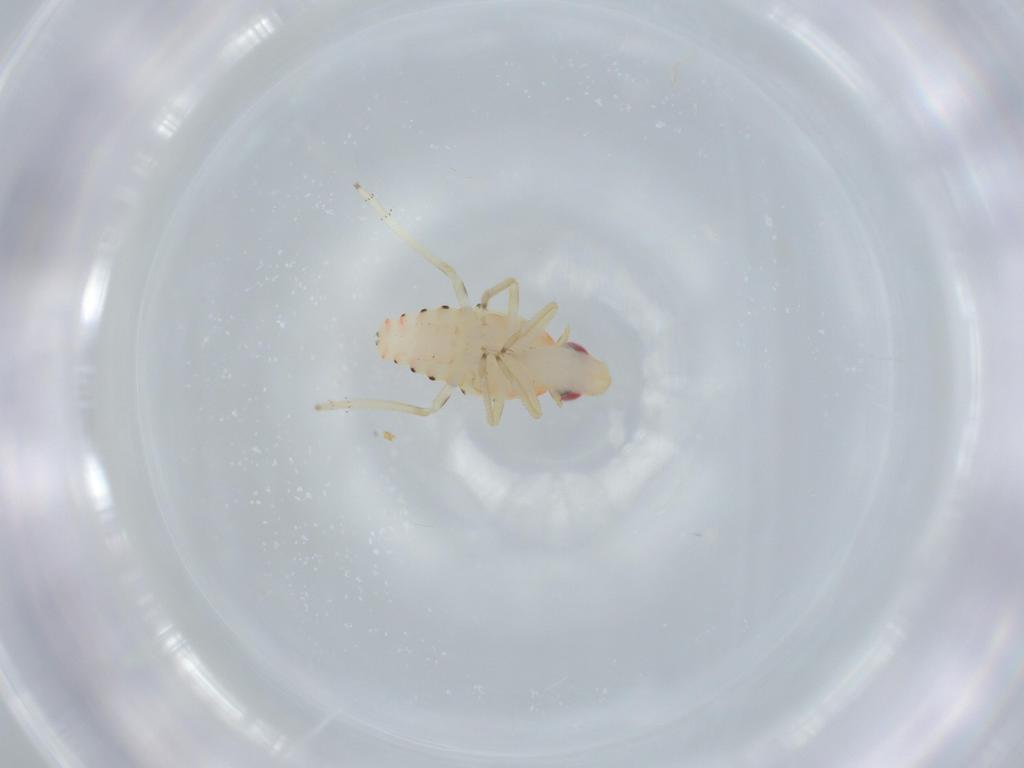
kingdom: Animalia
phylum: Arthropoda
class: Insecta
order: Hemiptera
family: Tropiduchidae
